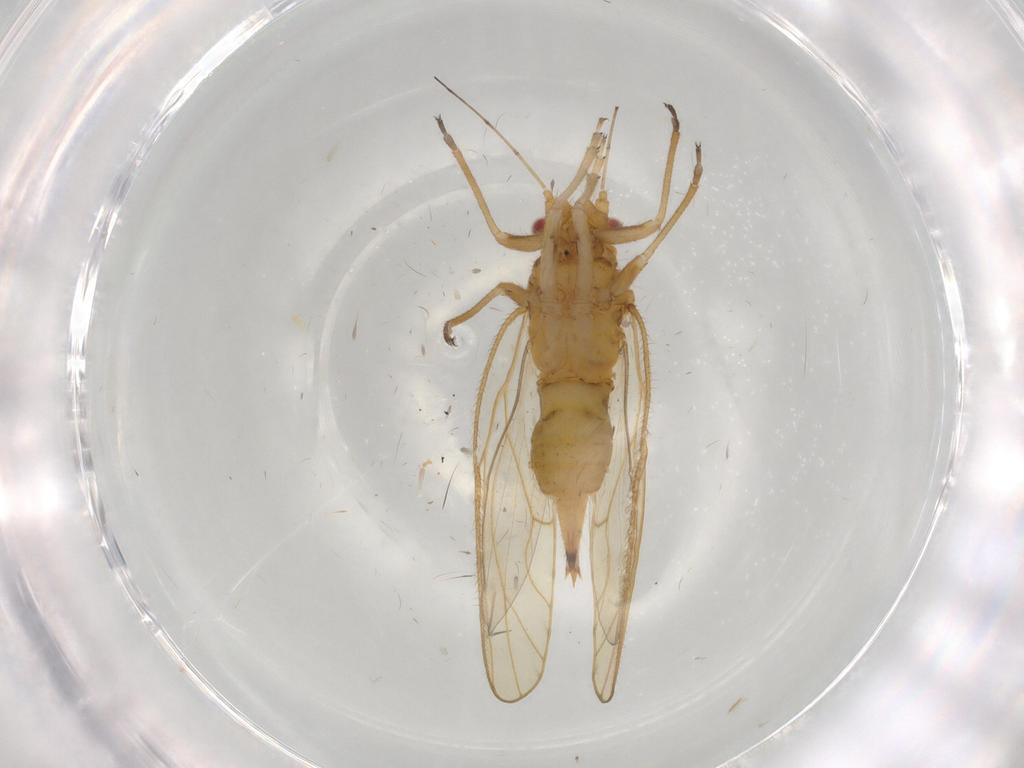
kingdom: Animalia
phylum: Arthropoda
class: Insecta
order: Hemiptera
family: Psyllidae
